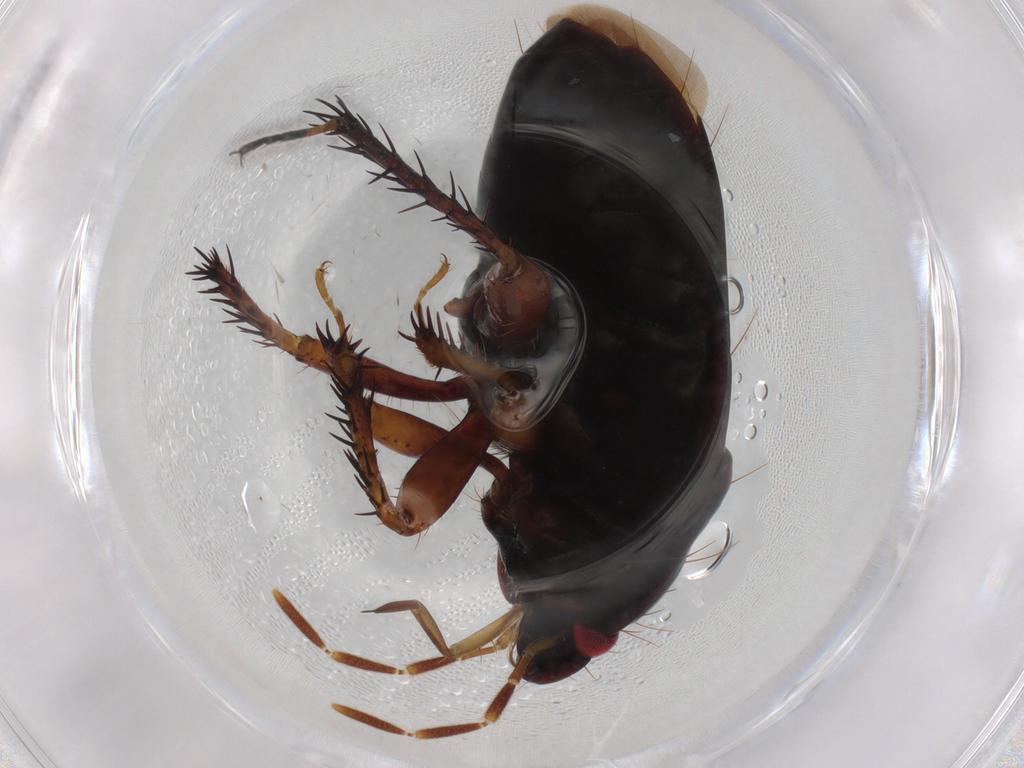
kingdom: Animalia
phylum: Arthropoda
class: Insecta
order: Hemiptera
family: Cydnidae
